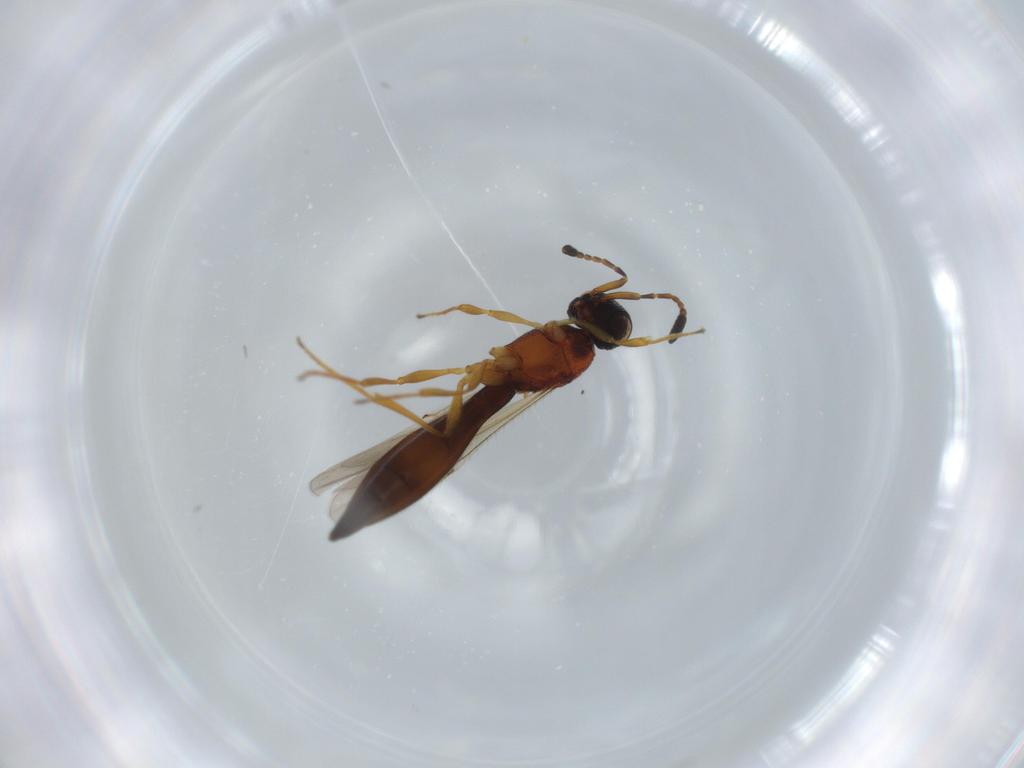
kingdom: Animalia
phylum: Arthropoda
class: Insecta
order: Hymenoptera
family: Scelionidae
